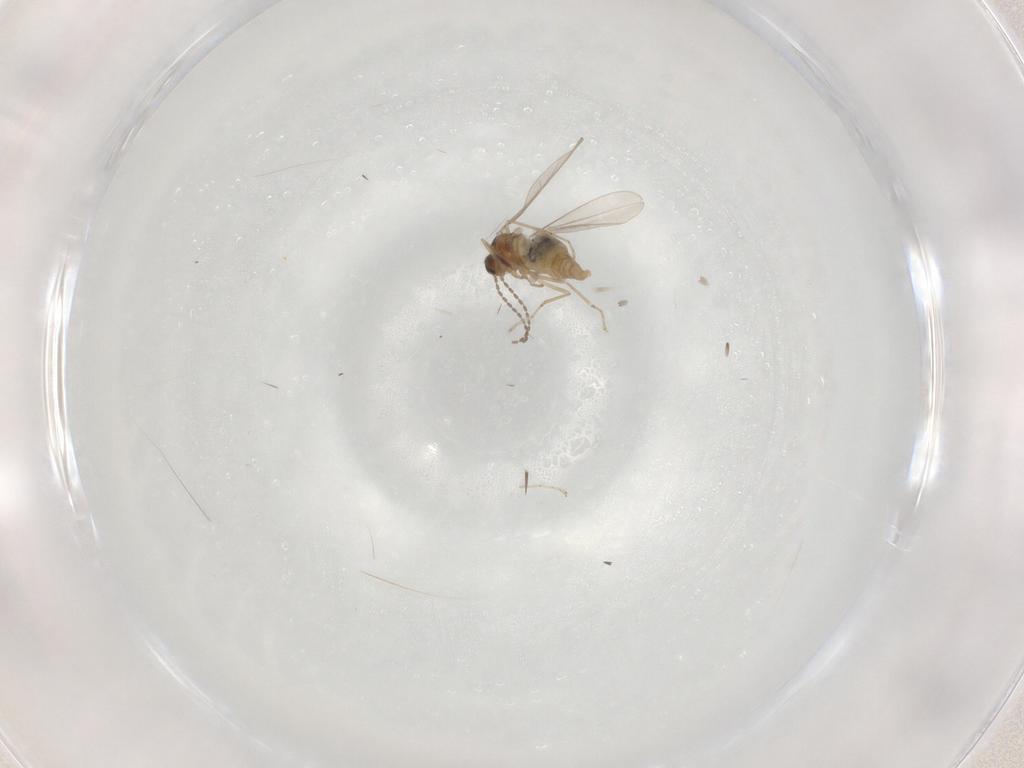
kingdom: Animalia
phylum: Arthropoda
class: Insecta
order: Diptera
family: Cecidomyiidae
